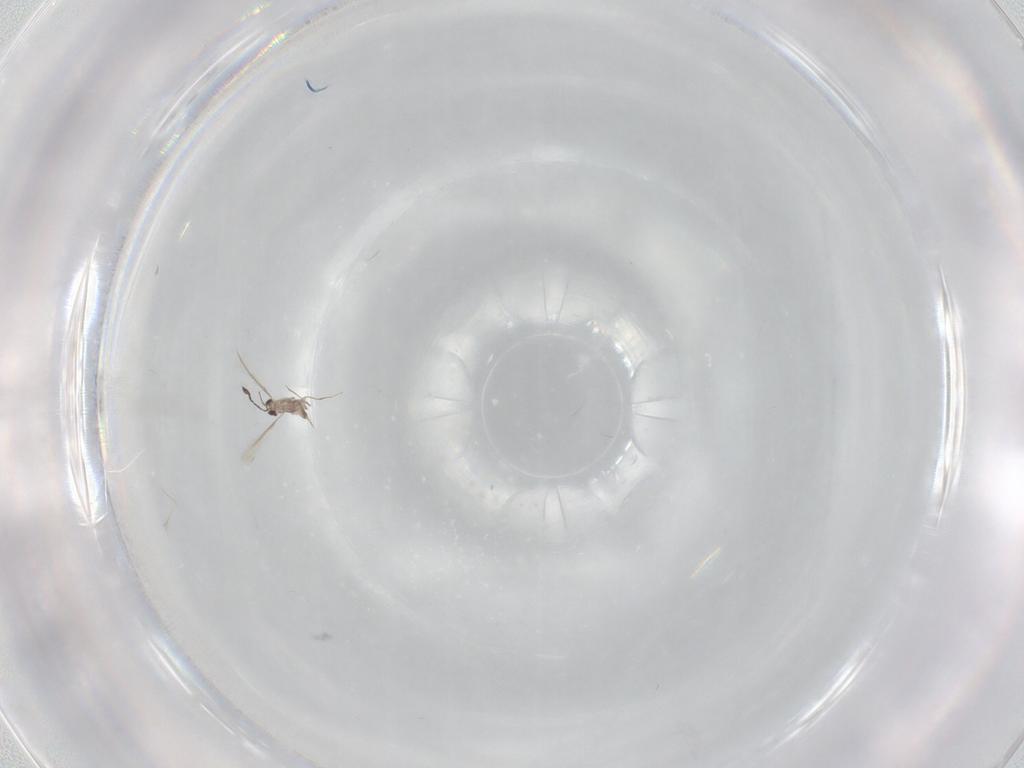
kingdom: Animalia
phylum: Arthropoda
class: Insecta
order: Hymenoptera
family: Mymaridae
